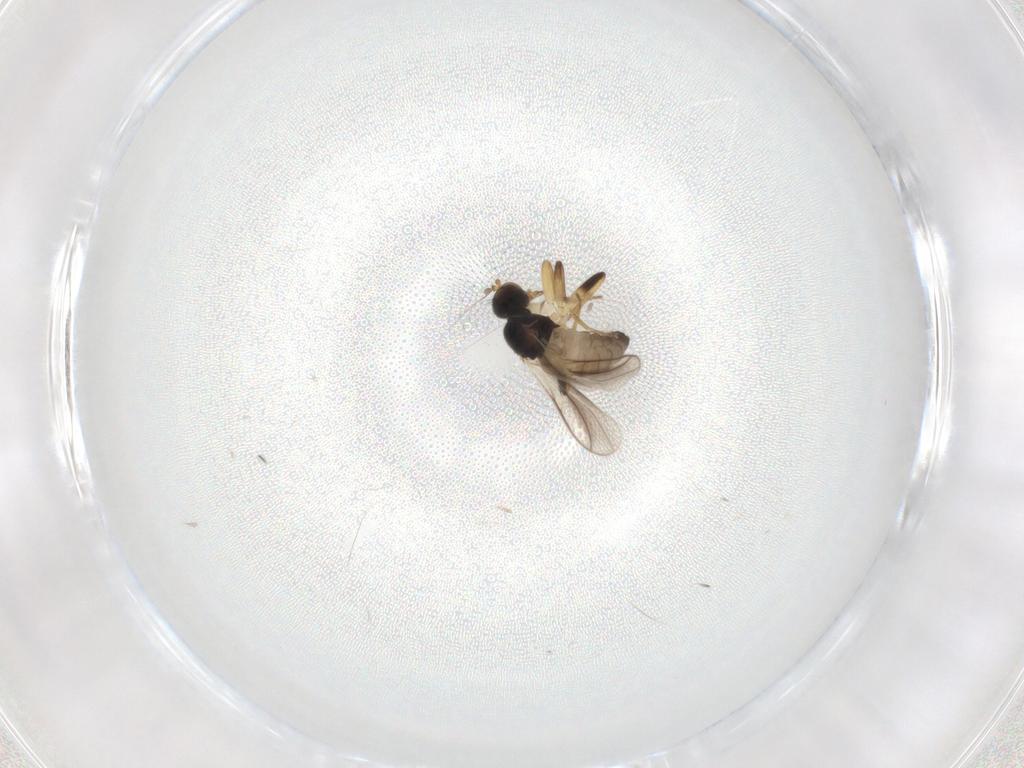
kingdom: Animalia
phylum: Arthropoda
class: Insecta
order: Diptera
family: Hybotidae
